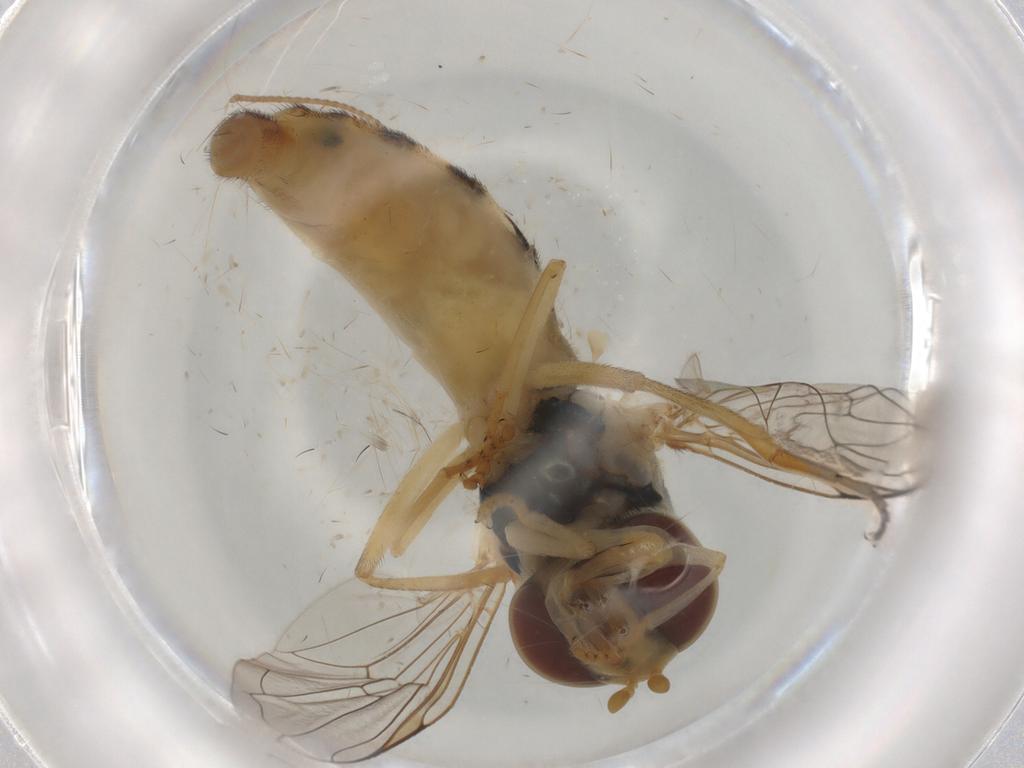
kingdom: Animalia
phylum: Arthropoda
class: Insecta
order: Diptera
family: Syrphidae
